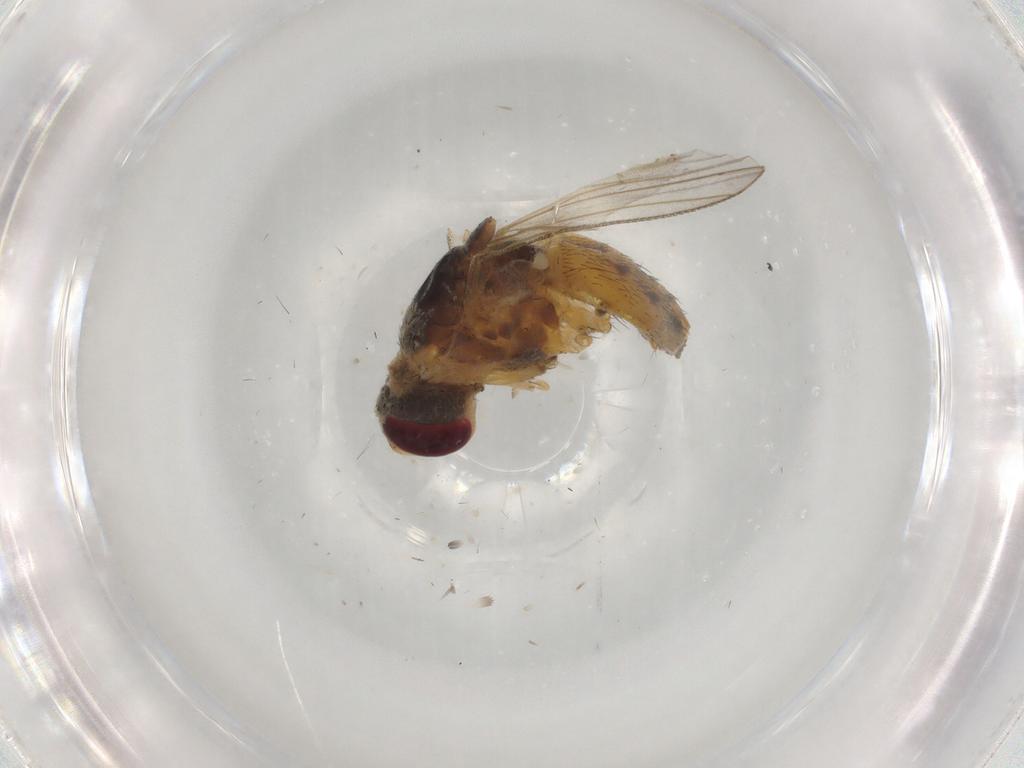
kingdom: Animalia
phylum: Arthropoda
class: Insecta
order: Diptera
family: Muscidae
